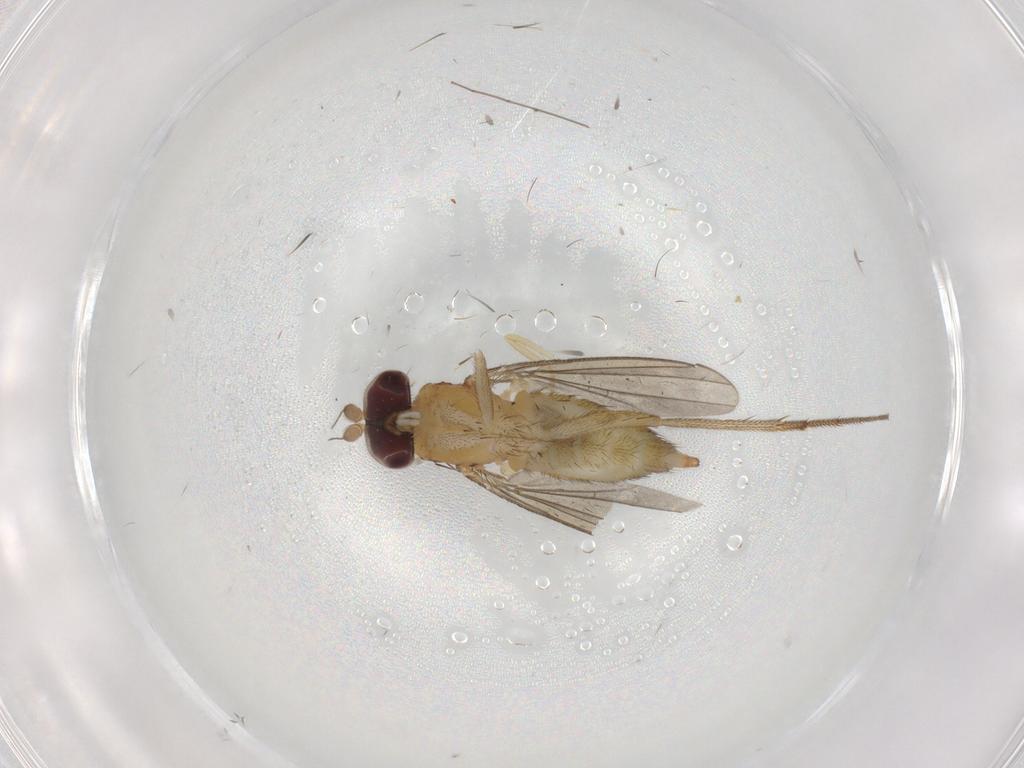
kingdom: Animalia
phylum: Arthropoda
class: Insecta
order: Diptera
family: Dolichopodidae
